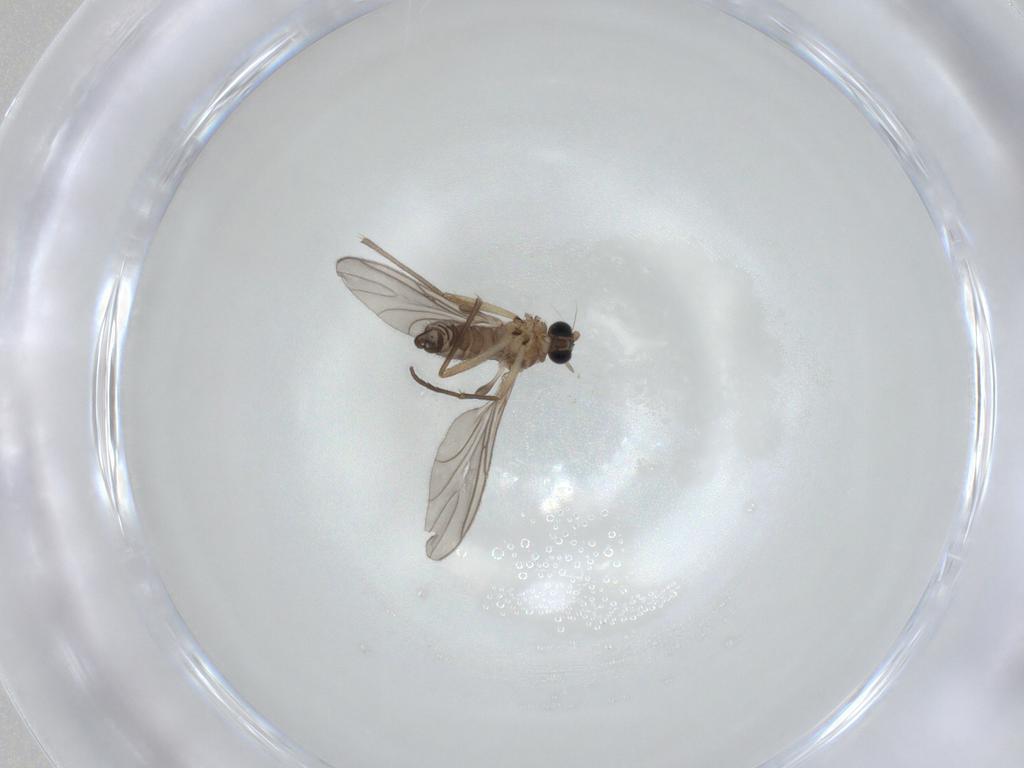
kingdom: Animalia
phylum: Arthropoda
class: Insecta
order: Diptera
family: Sciaridae
